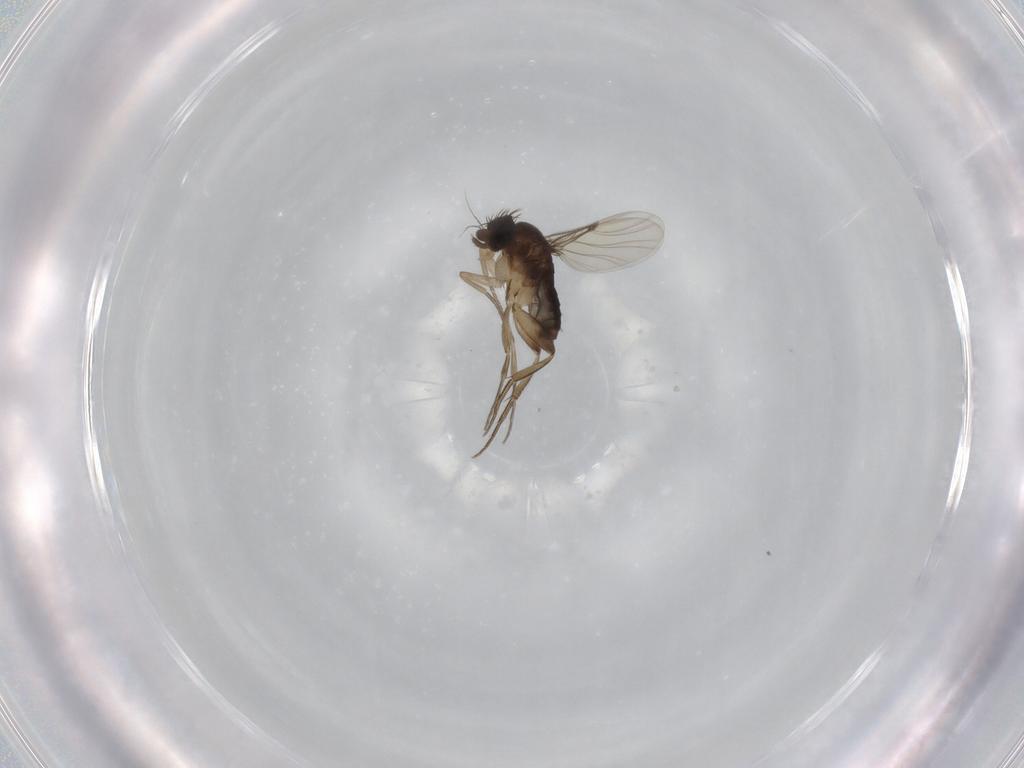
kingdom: Animalia
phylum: Arthropoda
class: Insecta
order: Diptera
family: Phoridae
